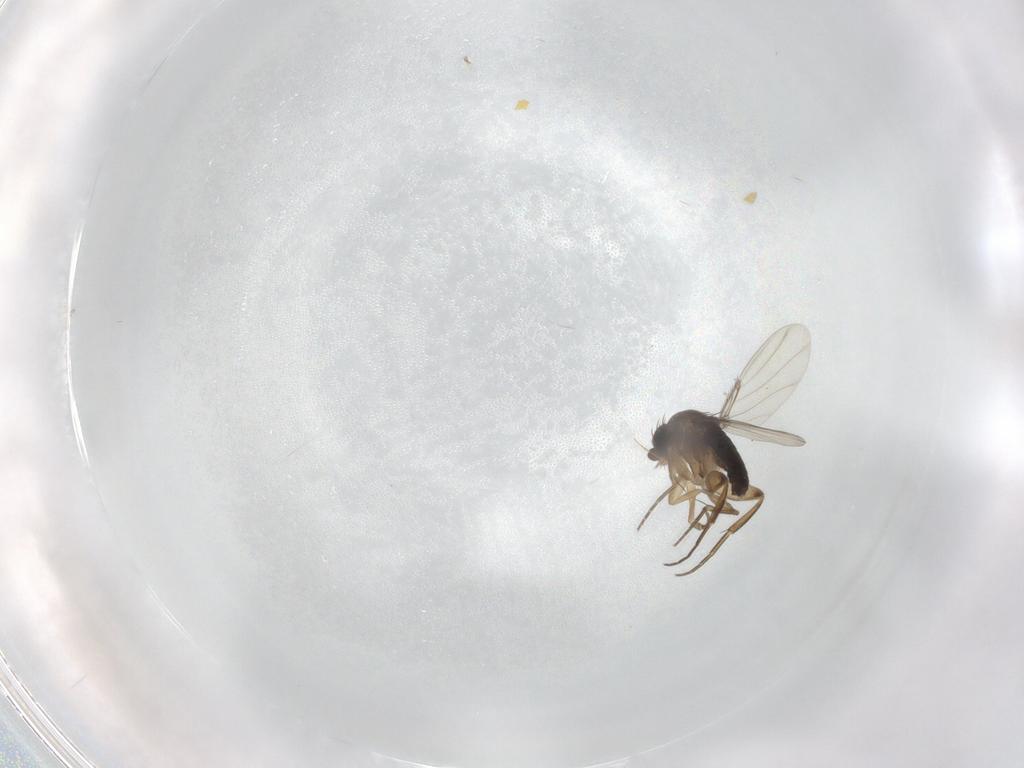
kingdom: Animalia
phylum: Arthropoda
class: Insecta
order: Diptera
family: Phoridae
